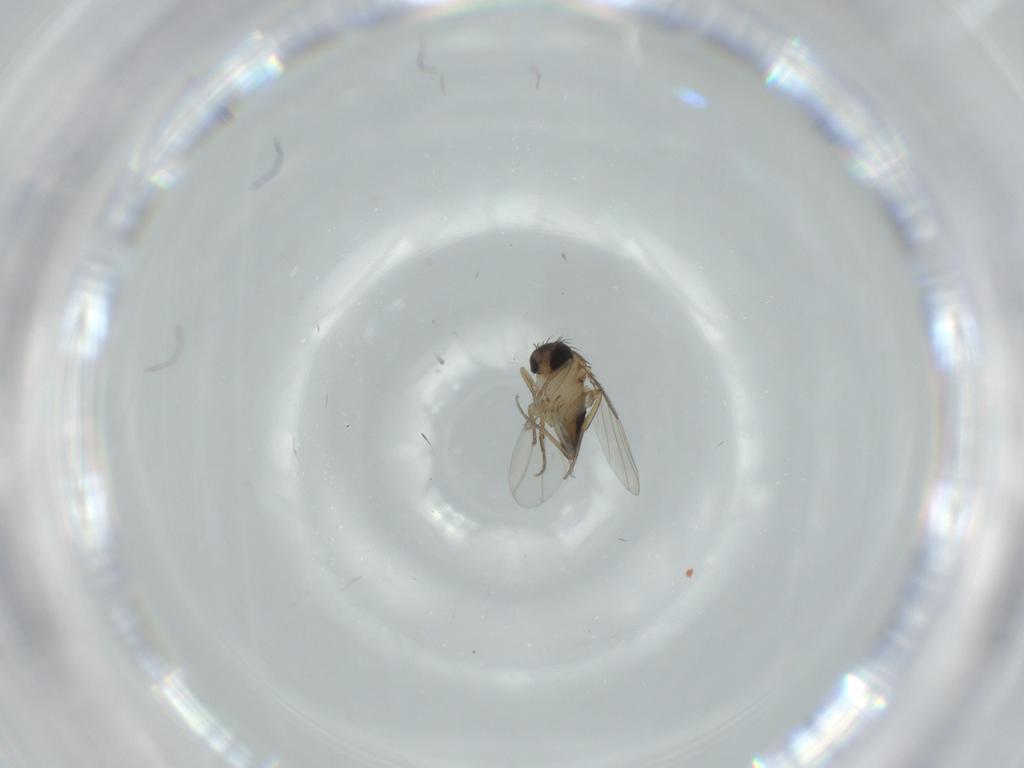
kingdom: Animalia
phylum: Arthropoda
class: Insecta
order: Diptera
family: Phoridae
